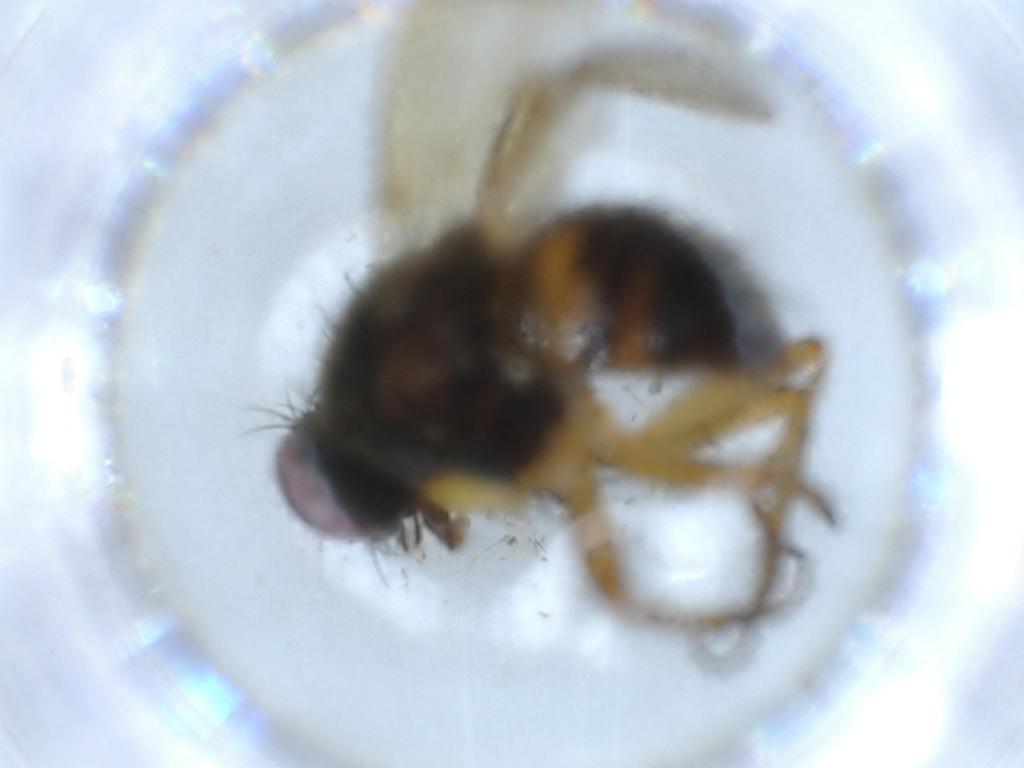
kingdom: Animalia
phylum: Arthropoda
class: Insecta
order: Diptera
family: Muscidae
